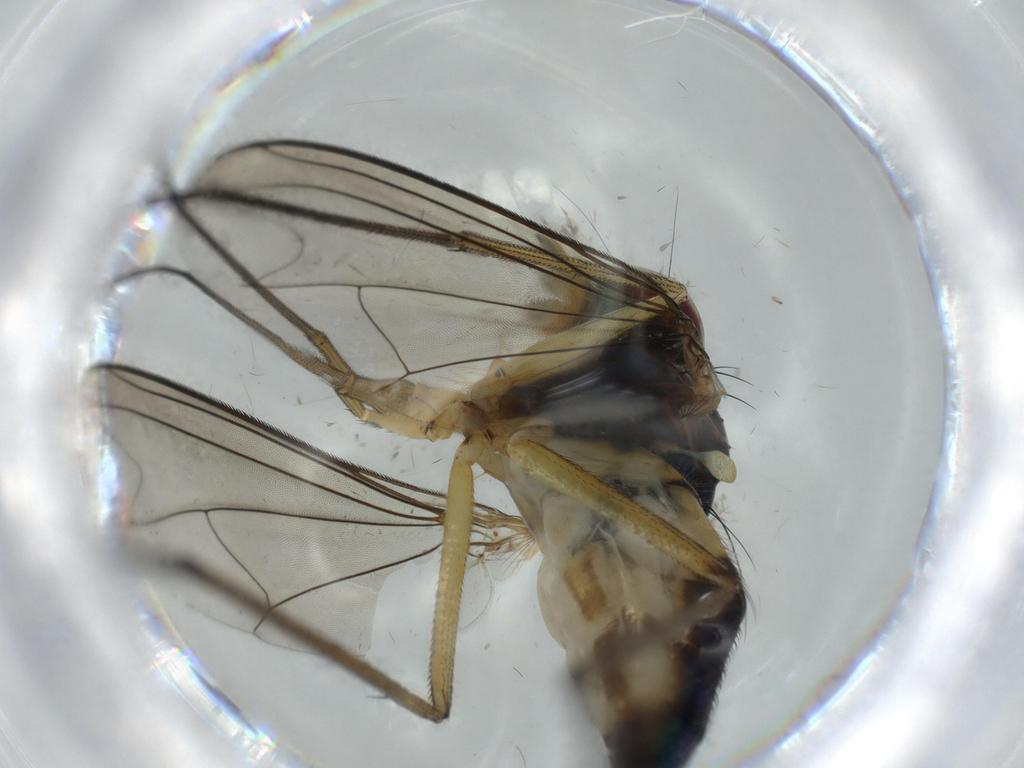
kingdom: Animalia
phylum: Arthropoda
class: Insecta
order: Diptera
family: Dolichopodidae
